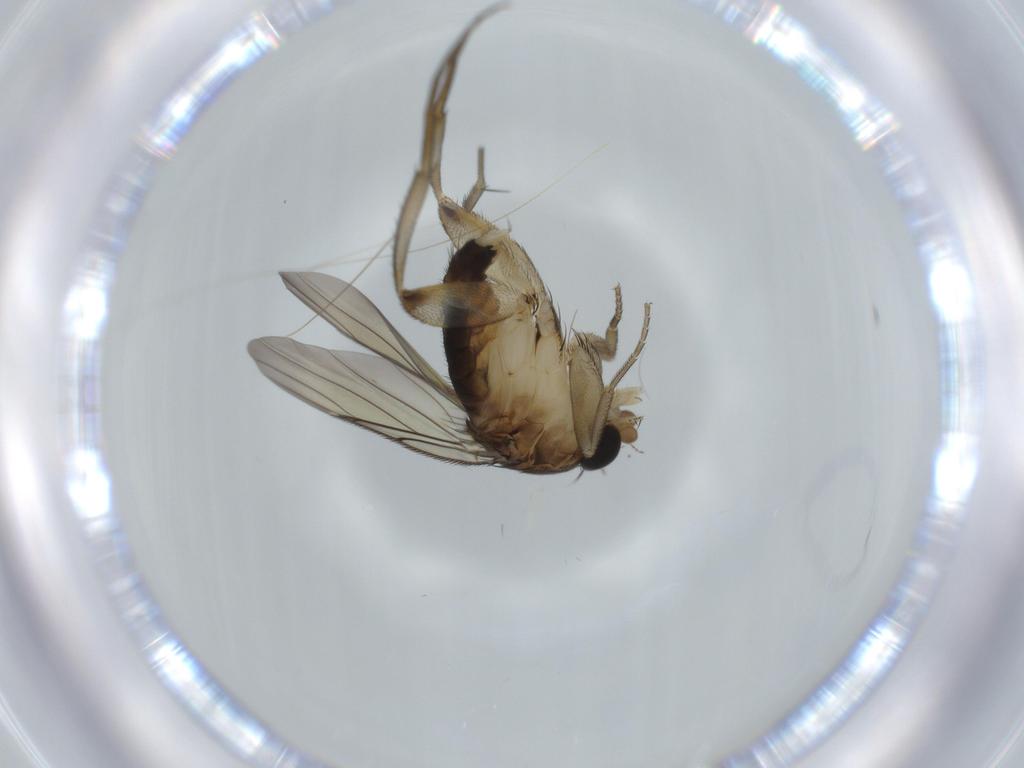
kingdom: Animalia
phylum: Arthropoda
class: Insecta
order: Diptera
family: Phoridae
